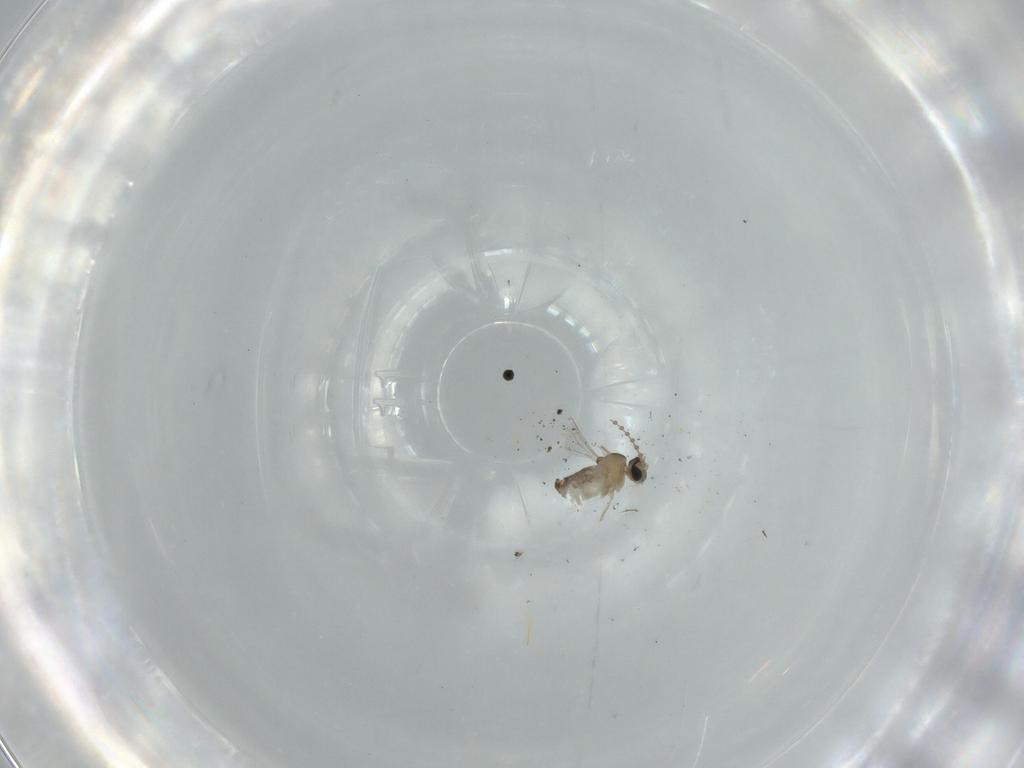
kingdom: Animalia
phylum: Arthropoda
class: Insecta
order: Diptera
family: Cecidomyiidae
